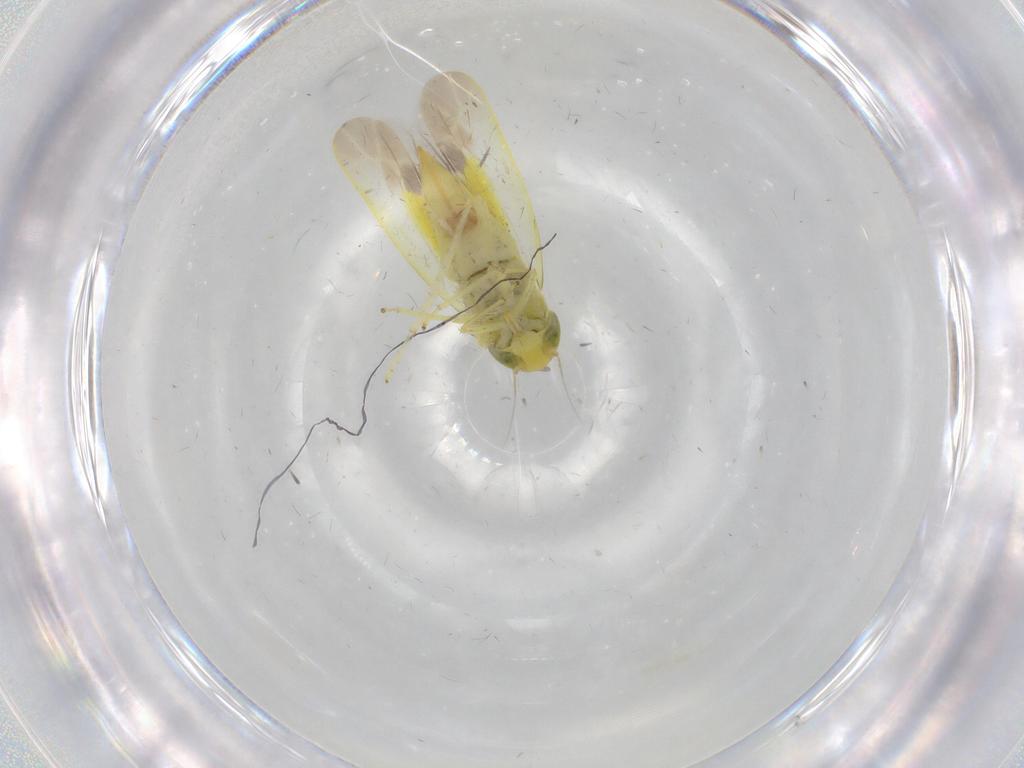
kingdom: Animalia
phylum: Arthropoda
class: Insecta
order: Hemiptera
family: Cicadellidae
